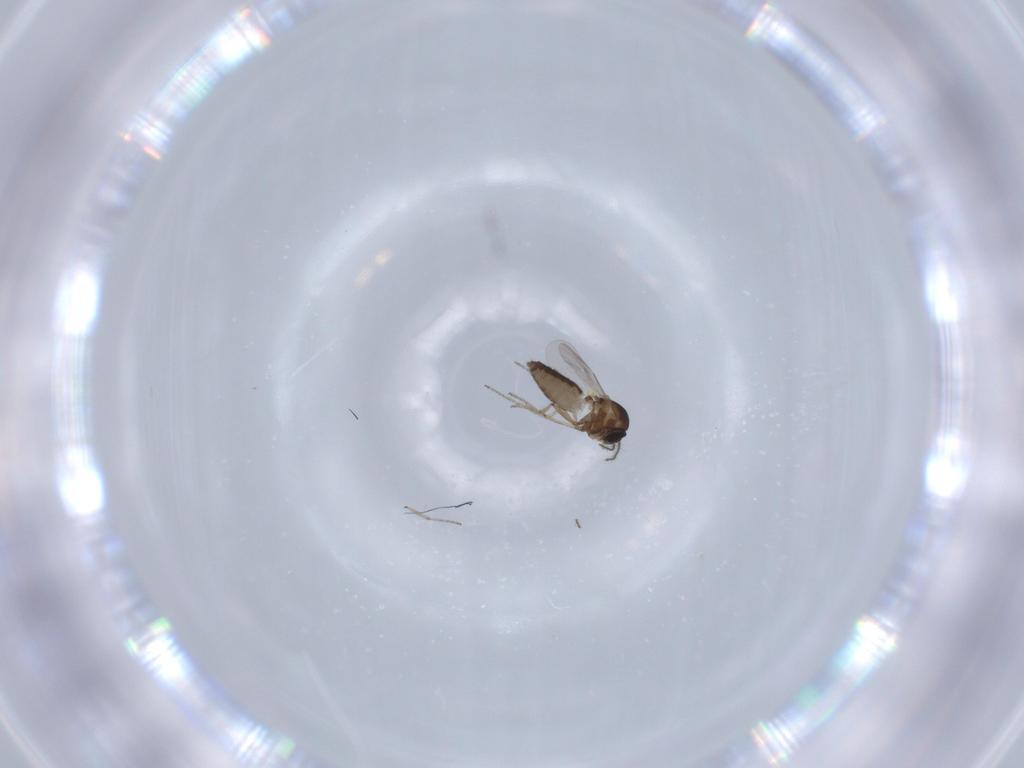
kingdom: Animalia
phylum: Arthropoda
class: Insecta
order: Diptera
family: Ceratopogonidae
